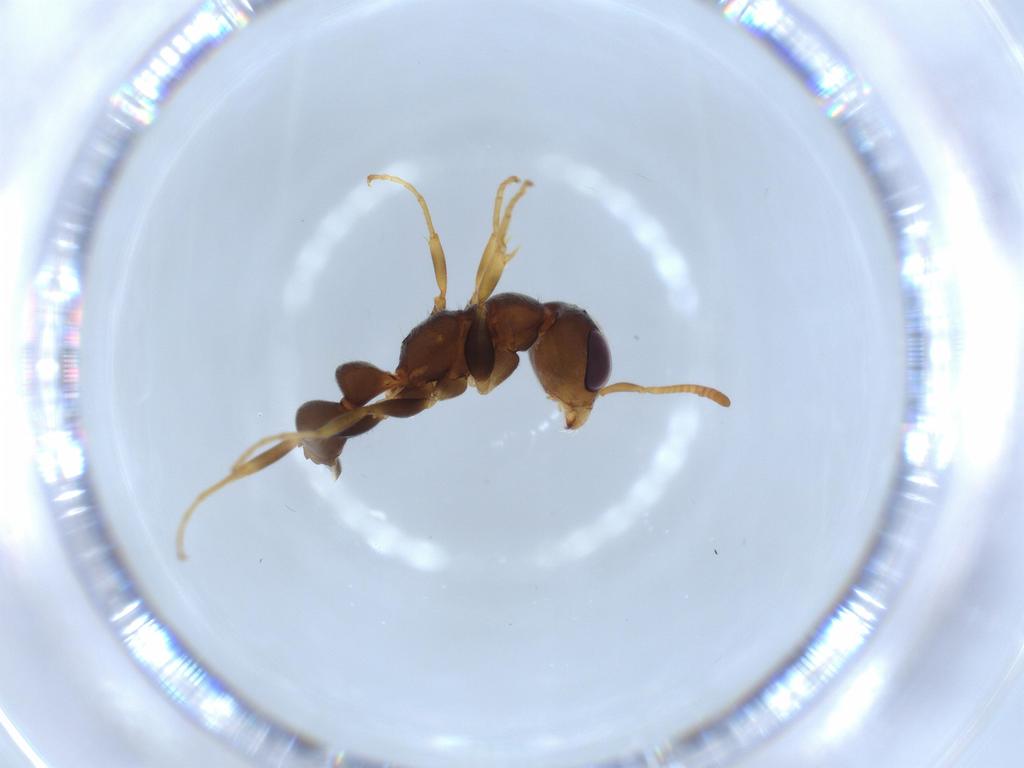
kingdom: Animalia
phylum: Arthropoda
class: Insecta
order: Hymenoptera
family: Formicidae
